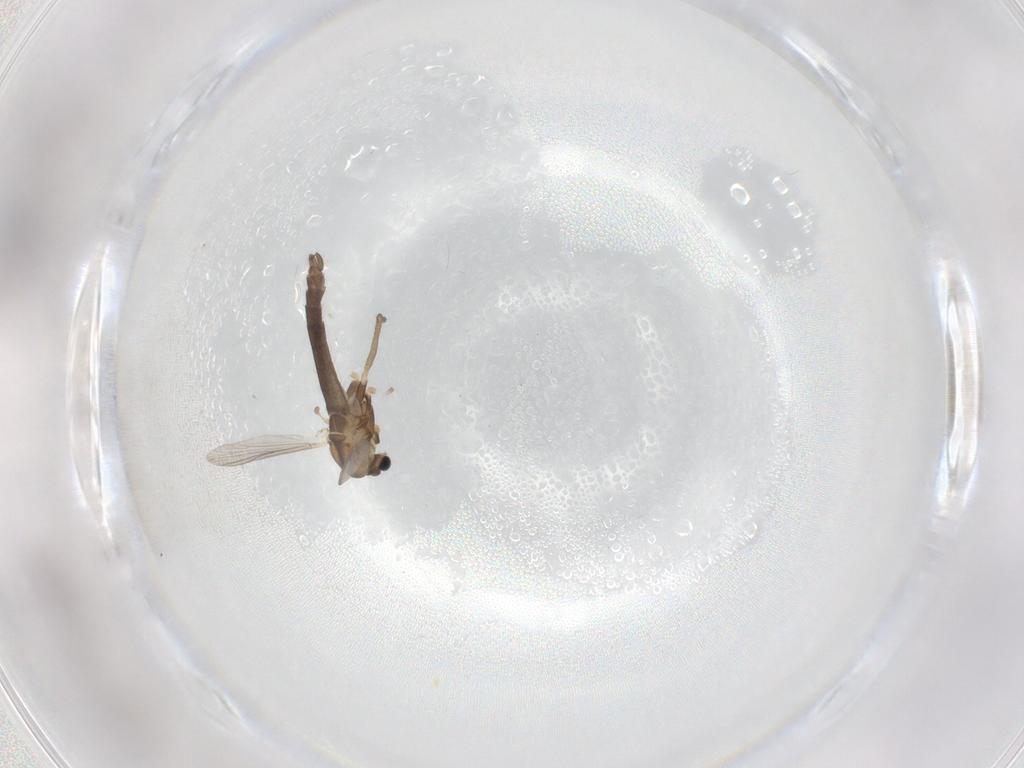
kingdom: Animalia
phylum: Arthropoda
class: Insecta
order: Diptera
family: Chironomidae
